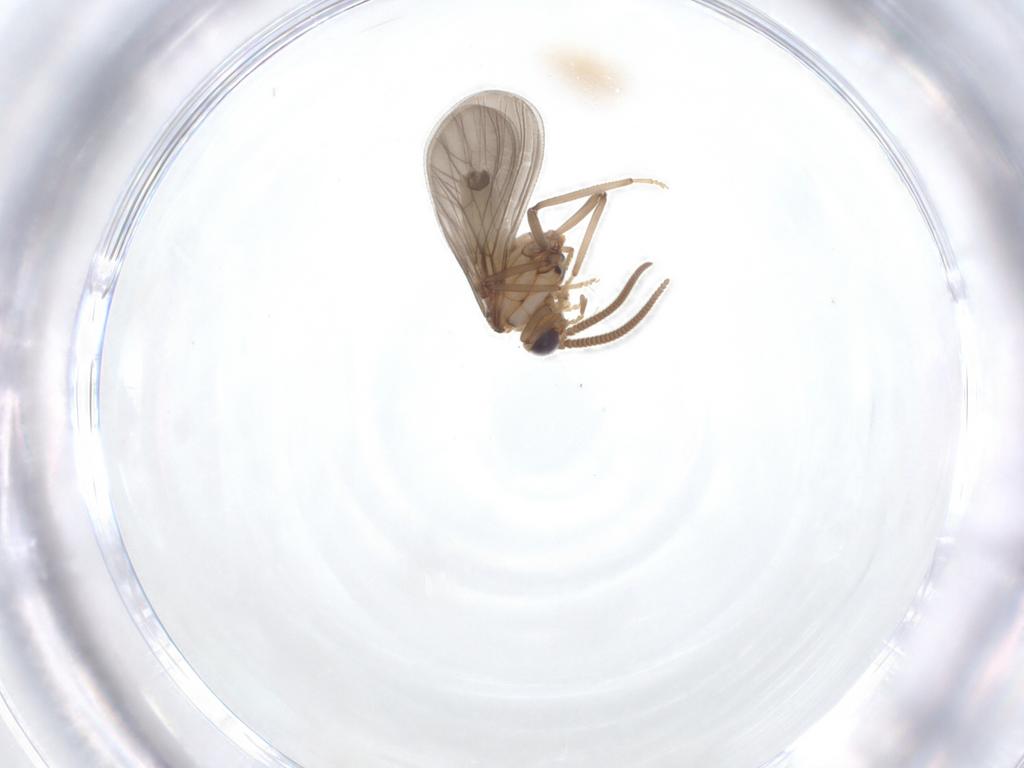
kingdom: Animalia
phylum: Arthropoda
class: Insecta
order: Neuroptera
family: Coniopterygidae
